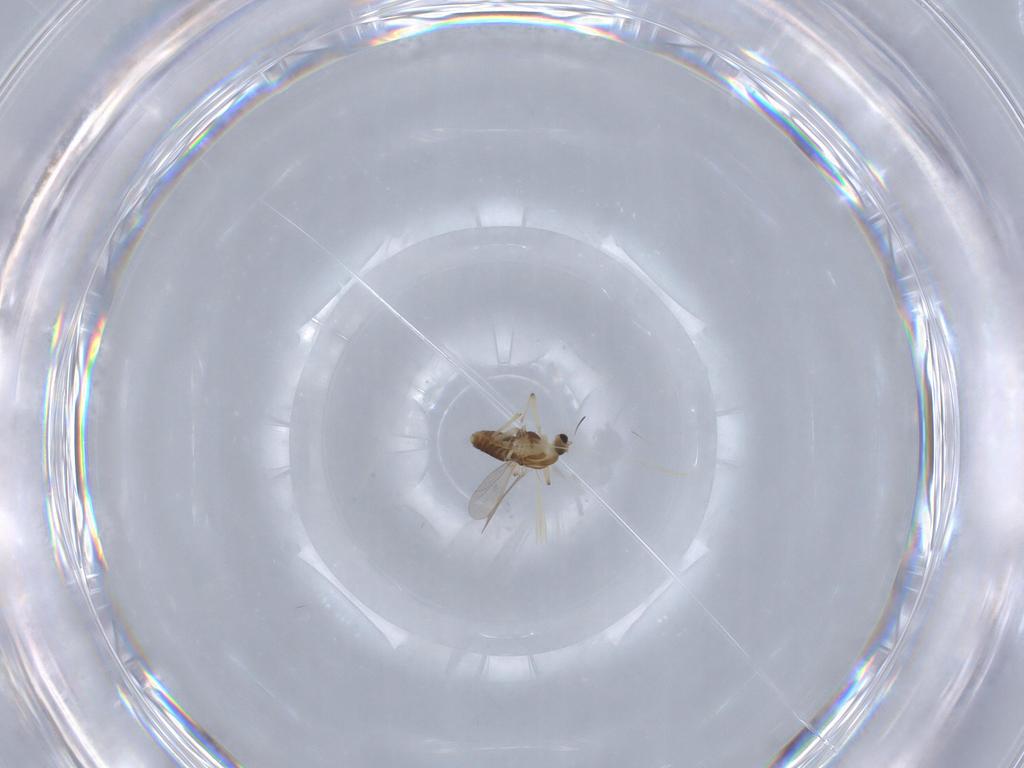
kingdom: Animalia
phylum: Arthropoda
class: Insecta
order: Diptera
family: Chironomidae
